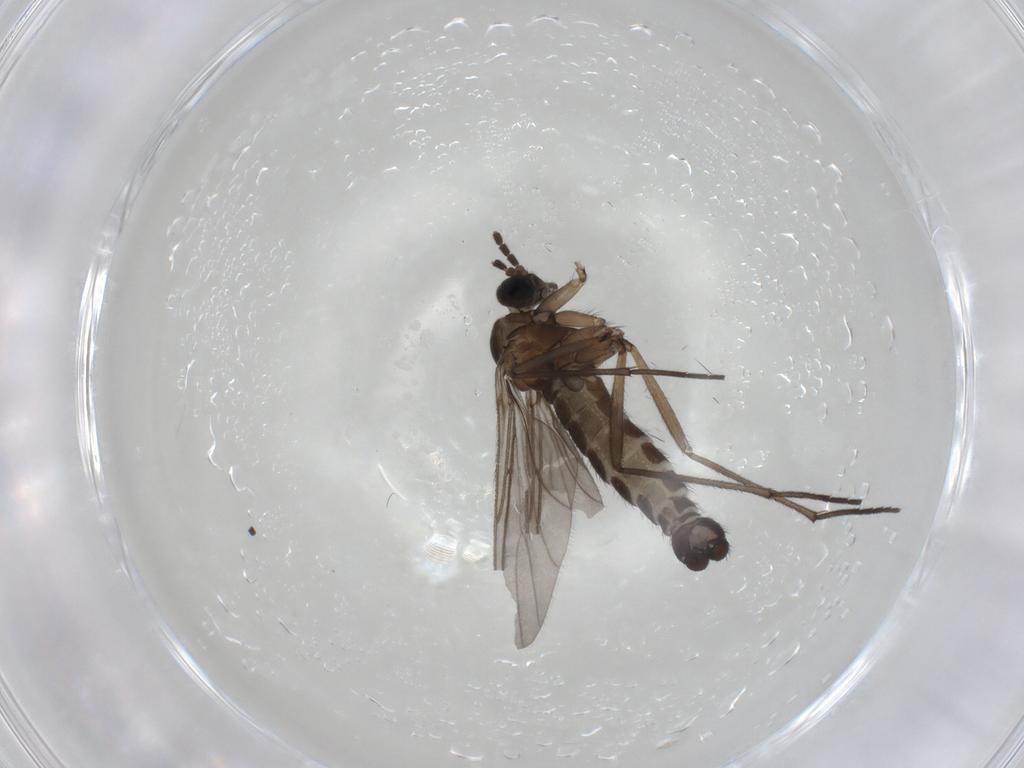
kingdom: Animalia
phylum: Arthropoda
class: Insecta
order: Diptera
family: Sciaridae
